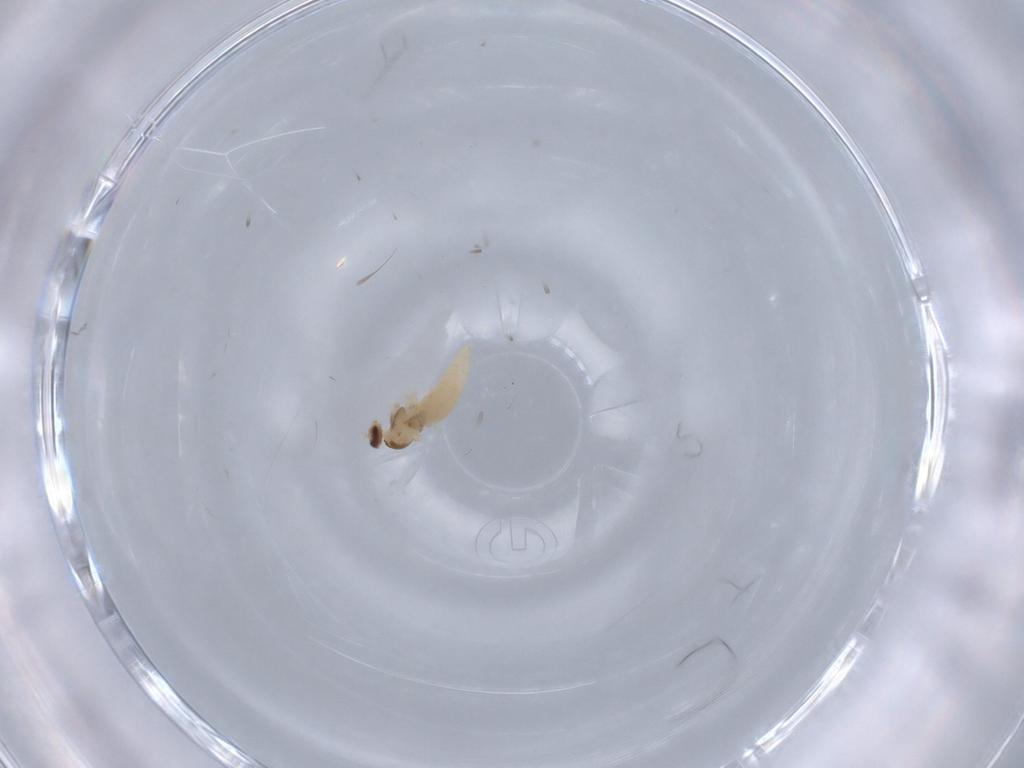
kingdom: Animalia
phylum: Arthropoda
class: Insecta
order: Diptera
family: Cecidomyiidae
